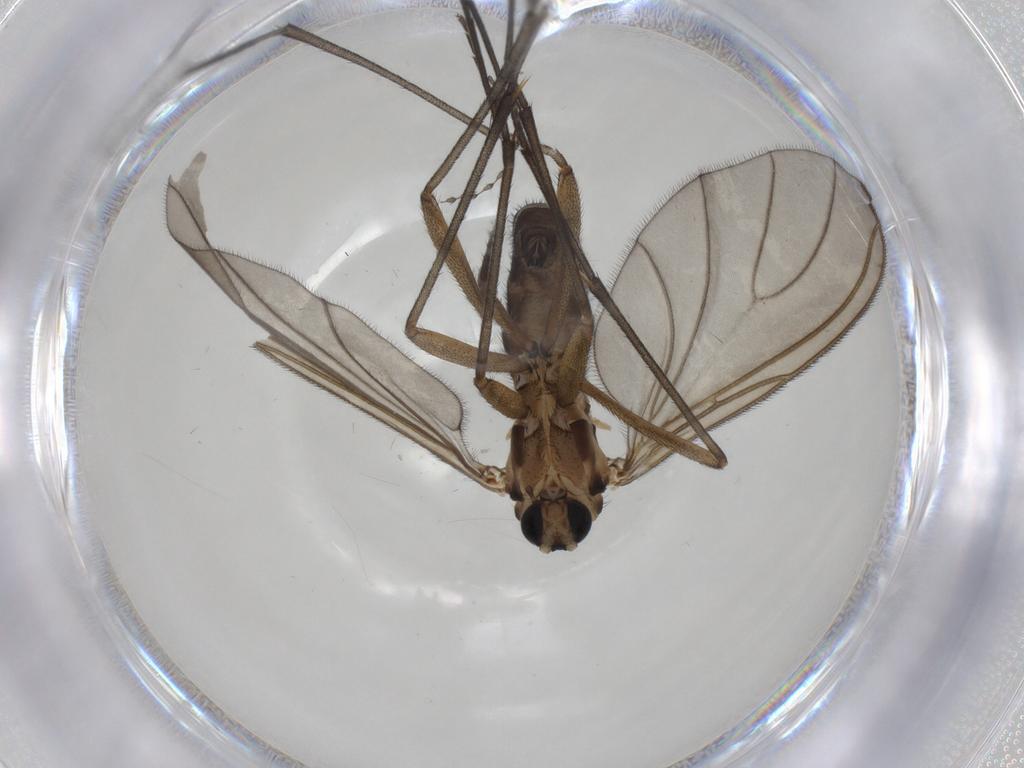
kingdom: Animalia
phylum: Arthropoda
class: Insecta
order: Diptera
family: Sciaridae
